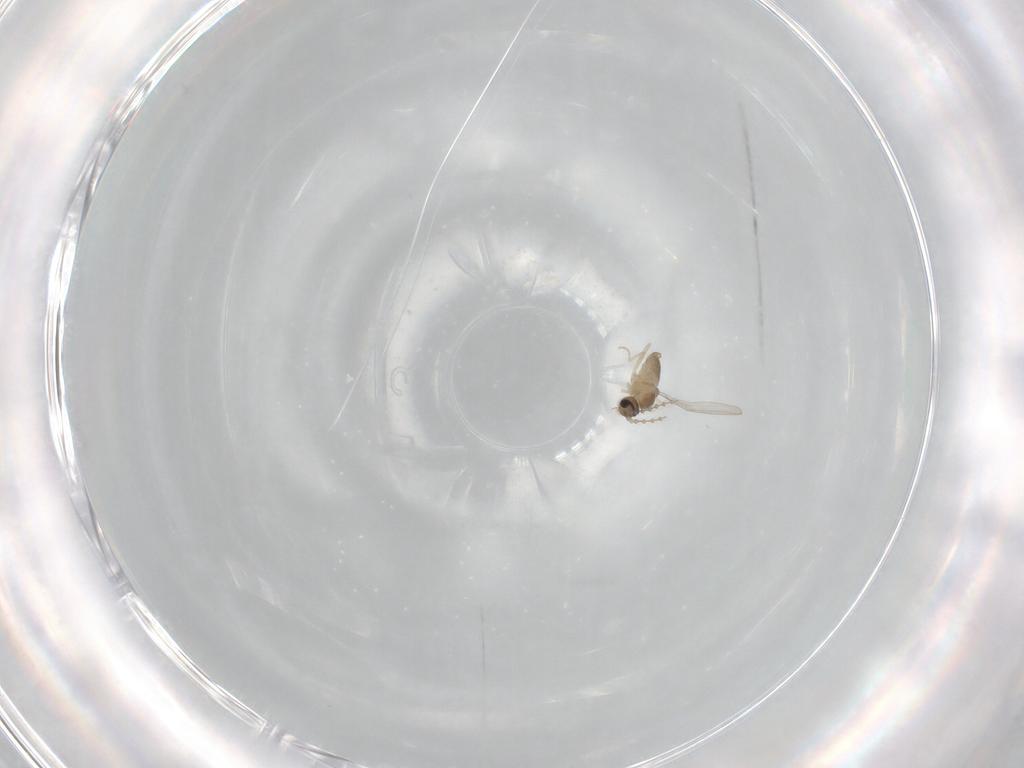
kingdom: Animalia
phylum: Arthropoda
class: Insecta
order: Diptera
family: Cecidomyiidae
